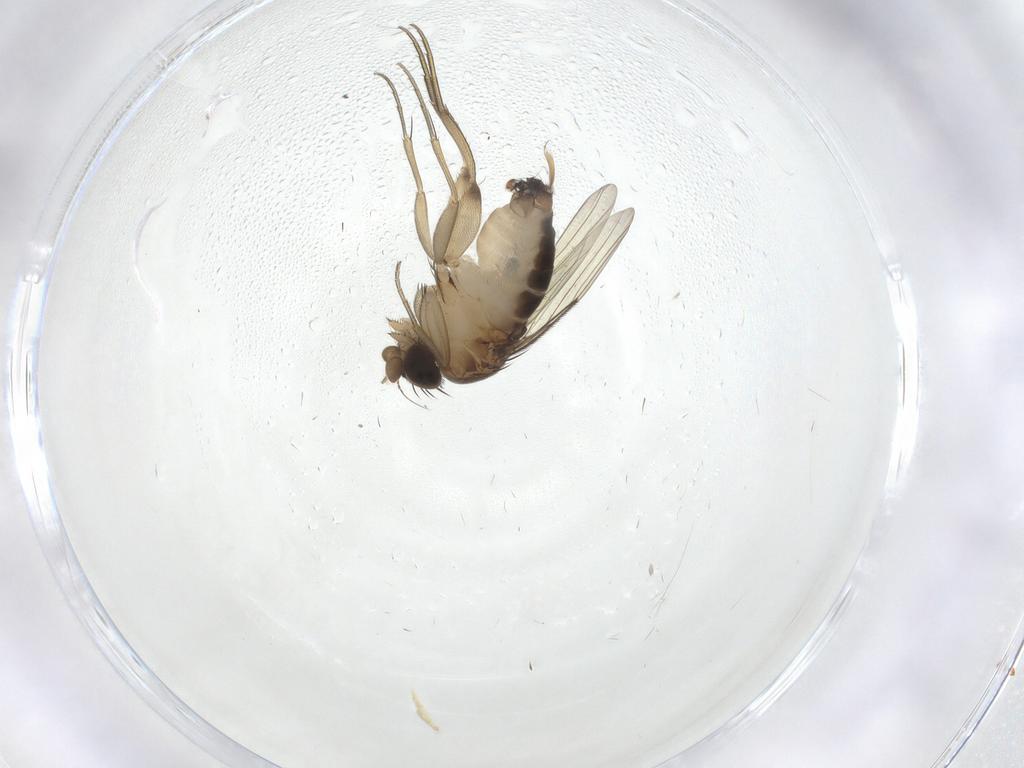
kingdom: Animalia
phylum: Arthropoda
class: Insecta
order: Diptera
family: Phoridae
